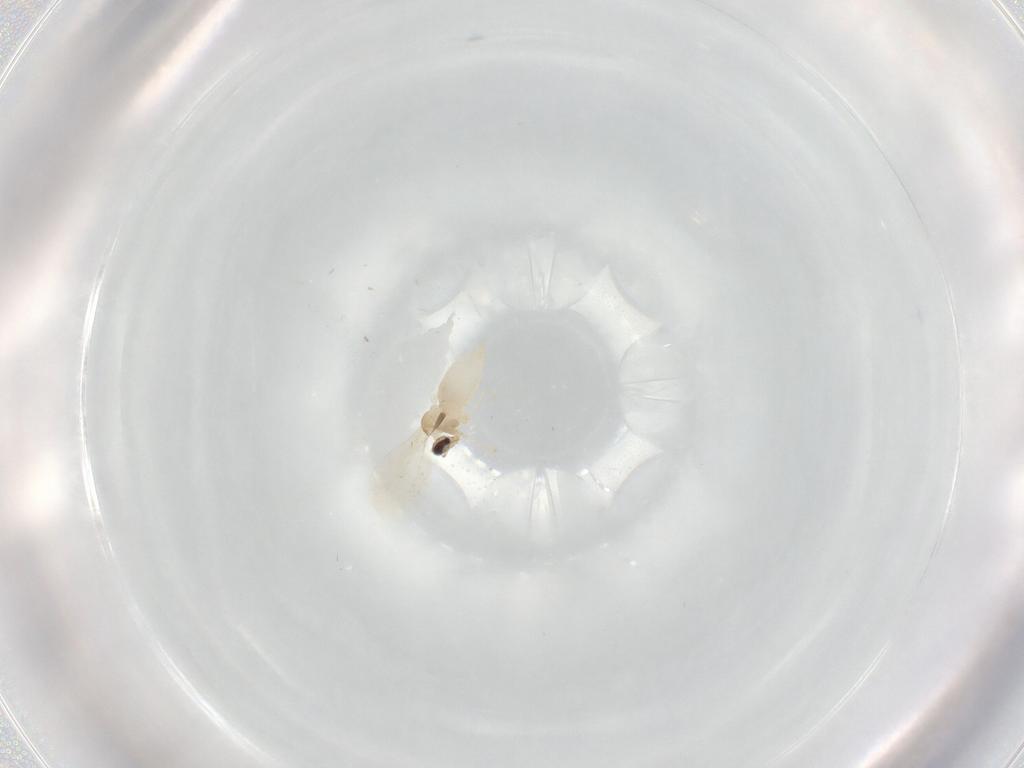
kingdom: Animalia
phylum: Arthropoda
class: Insecta
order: Diptera
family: Cecidomyiidae
